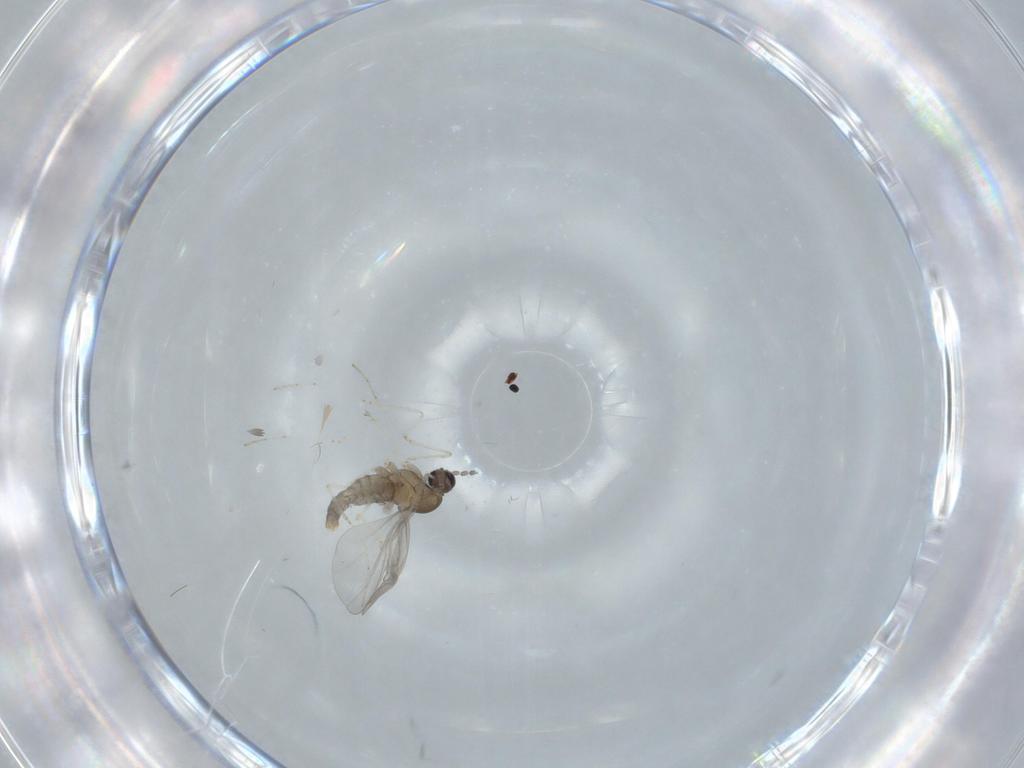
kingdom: Animalia
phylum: Arthropoda
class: Insecta
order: Diptera
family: Cecidomyiidae
